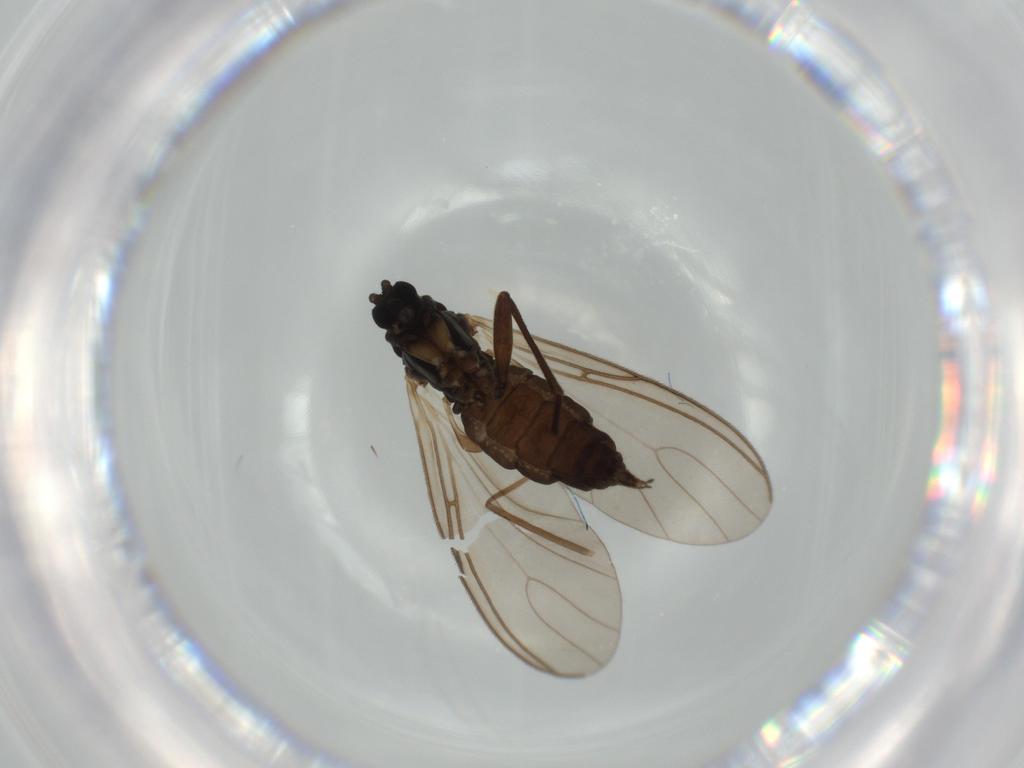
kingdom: Animalia
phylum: Arthropoda
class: Insecta
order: Diptera
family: Sciaridae
